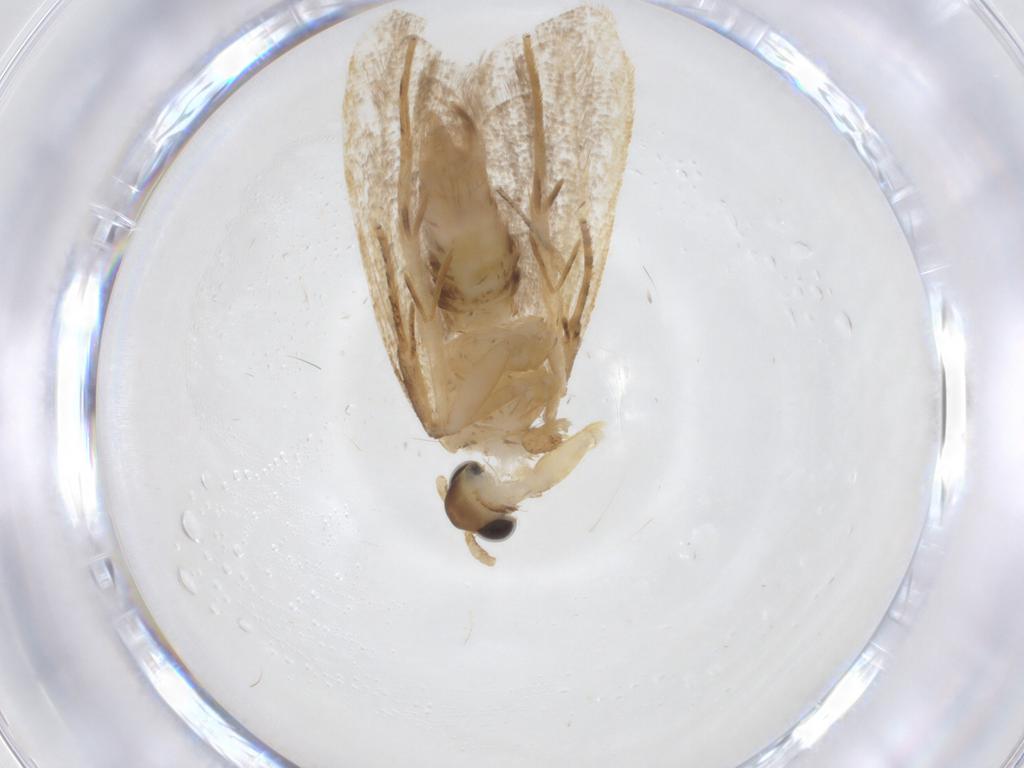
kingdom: Animalia
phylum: Arthropoda
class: Insecta
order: Lepidoptera
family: Lecithoceridae
